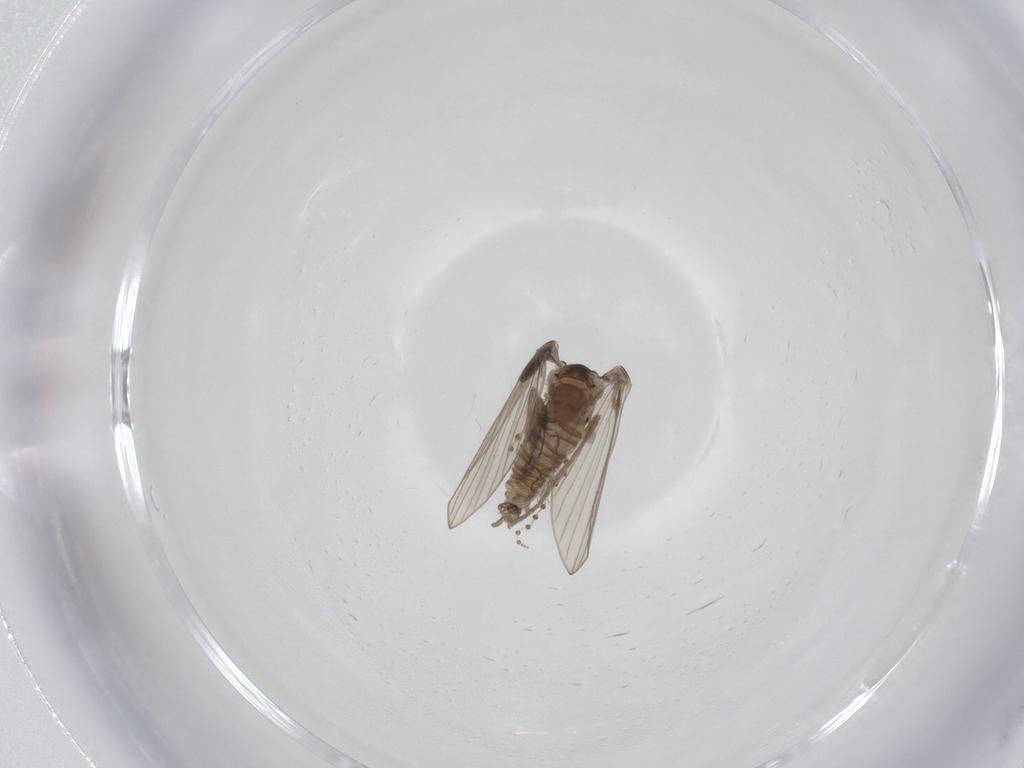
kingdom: Animalia
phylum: Arthropoda
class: Insecta
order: Diptera
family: Psychodidae
